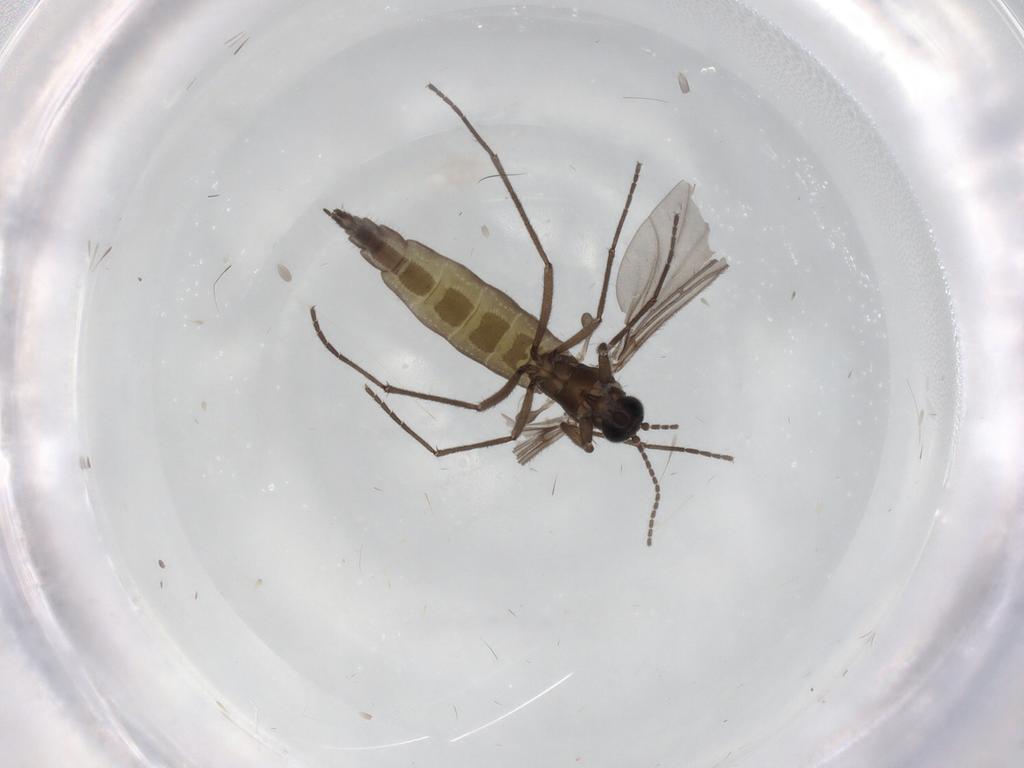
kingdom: Animalia
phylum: Arthropoda
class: Insecta
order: Diptera
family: Sciaridae
